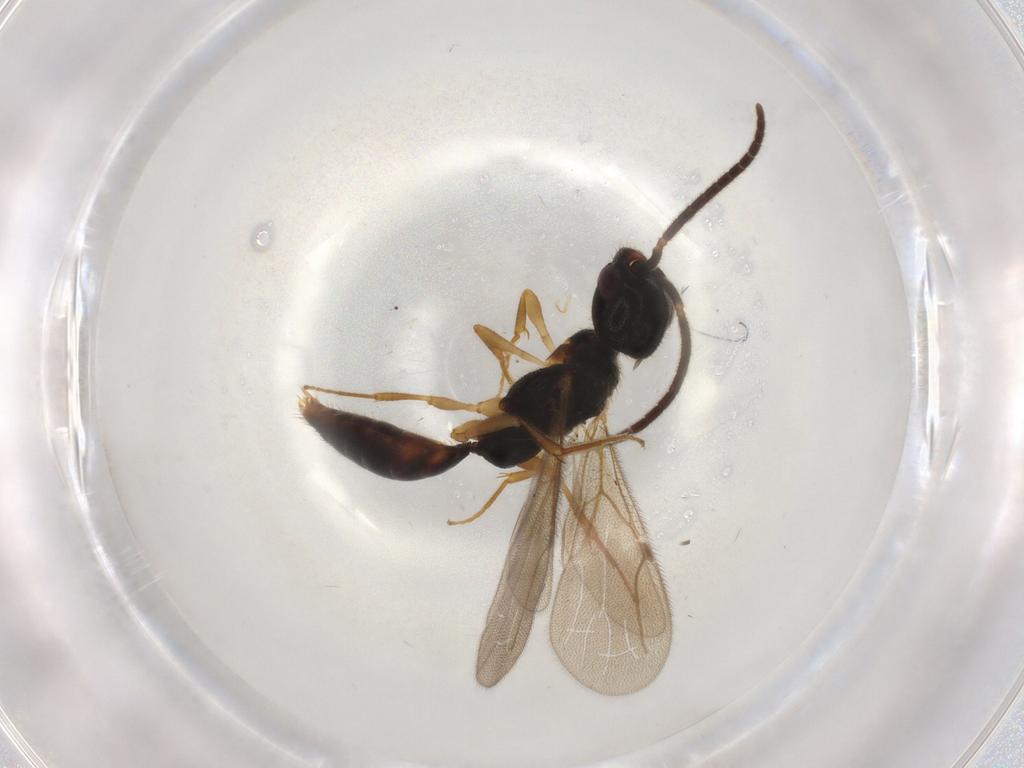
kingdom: Animalia
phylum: Arthropoda
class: Insecta
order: Hymenoptera
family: Bethylidae
